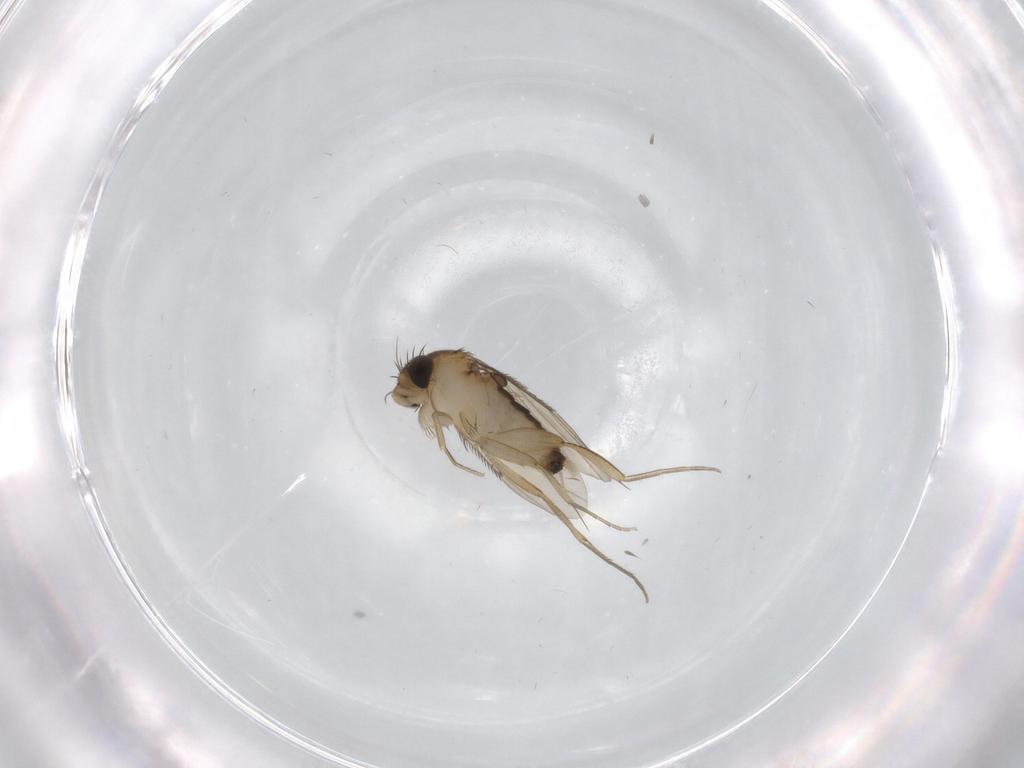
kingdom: Animalia
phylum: Arthropoda
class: Insecta
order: Diptera
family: Phoridae
